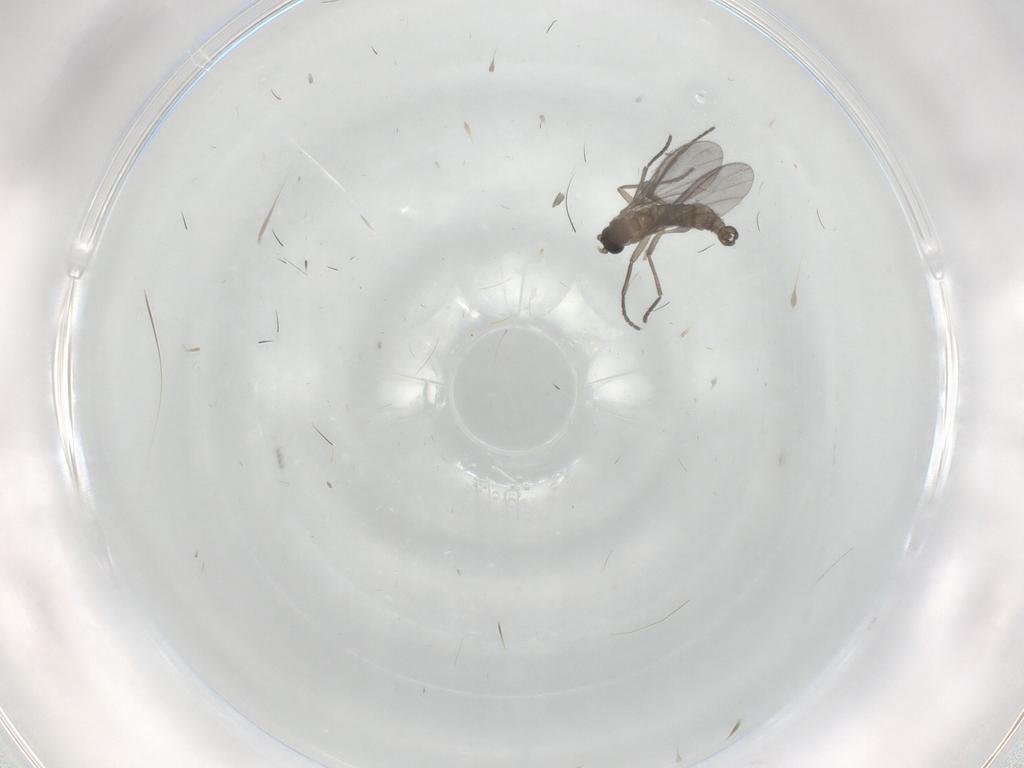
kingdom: Animalia
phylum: Arthropoda
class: Insecta
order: Diptera
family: Sciaridae
